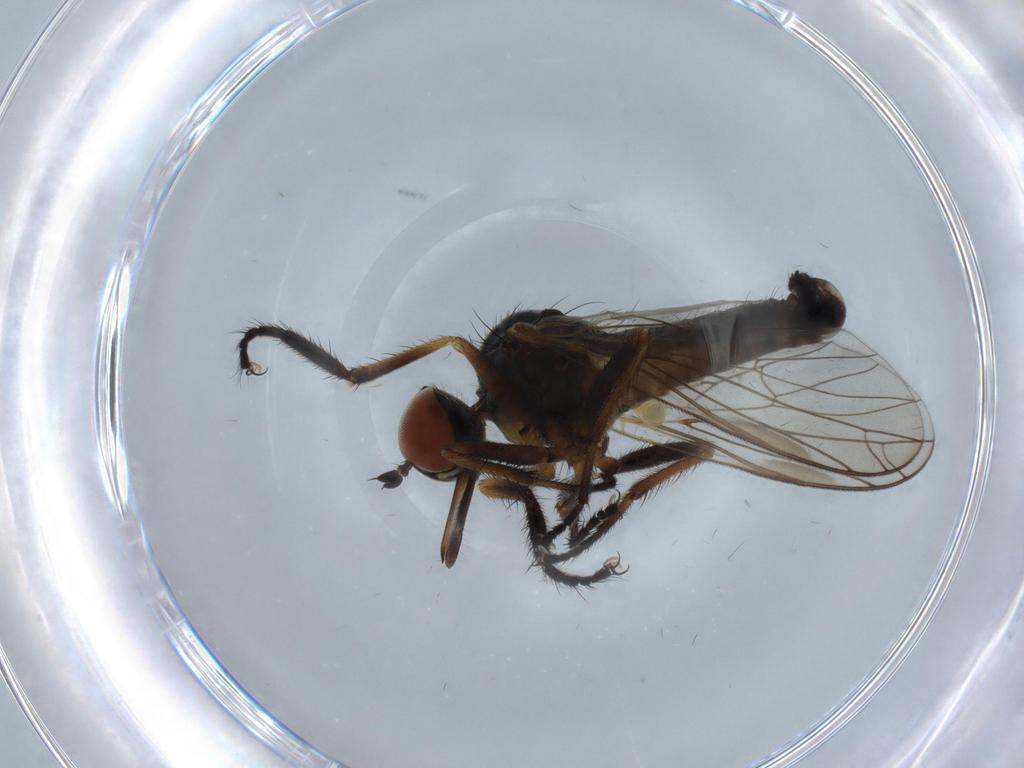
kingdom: Animalia
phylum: Arthropoda
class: Insecta
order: Diptera
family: Empididae
